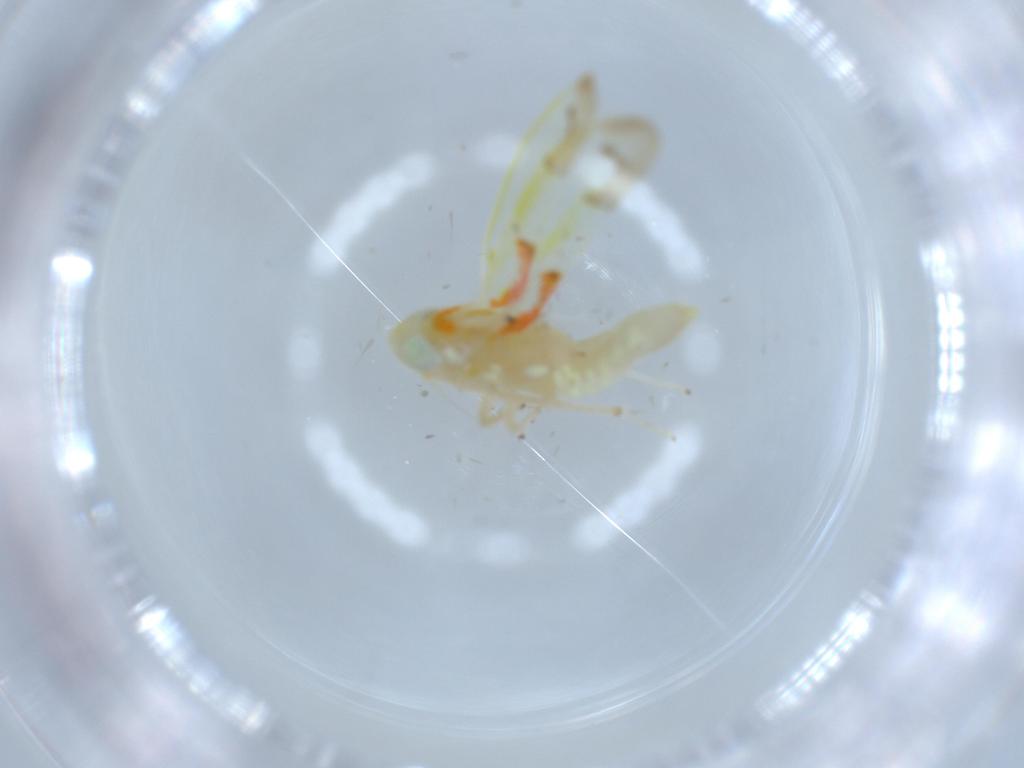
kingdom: Animalia
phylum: Arthropoda
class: Insecta
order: Hemiptera
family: Cicadellidae
